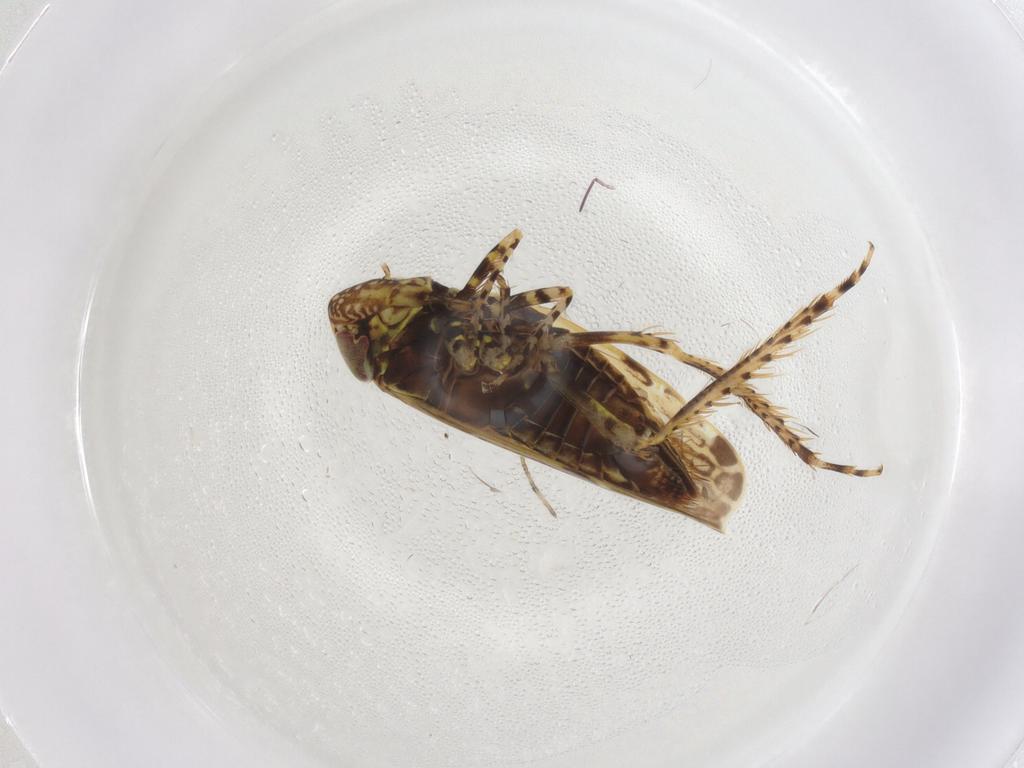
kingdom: Animalia
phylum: Arthropoda
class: Insecta
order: Hemiptera
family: Cicadellidae
